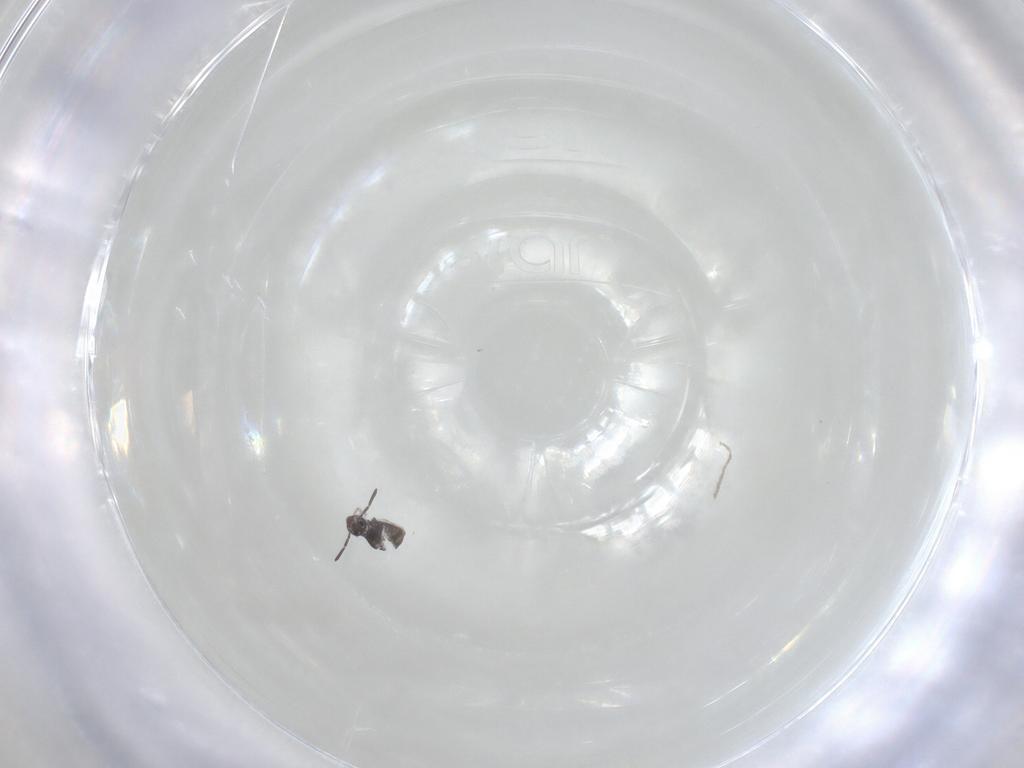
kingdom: Animalia
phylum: Arthropoda
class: Collembola
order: Symphypleona
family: Katiannidae
